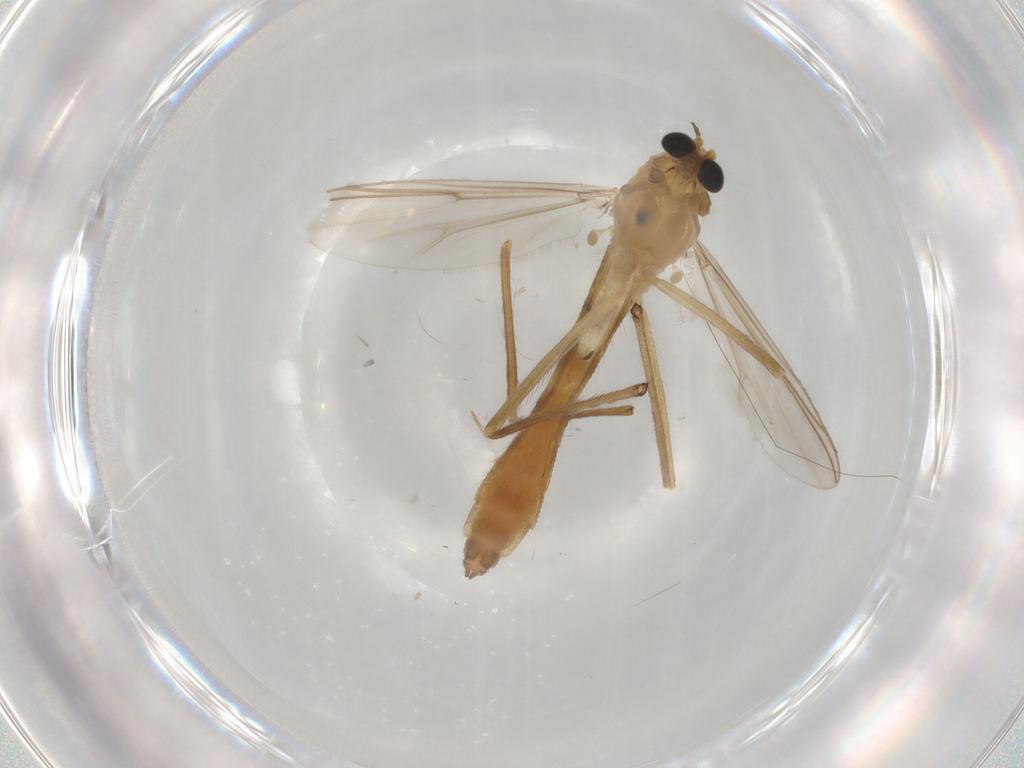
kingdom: Animalia
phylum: Arthropoda
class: Insecta
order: Diptera
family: Chironomidae
